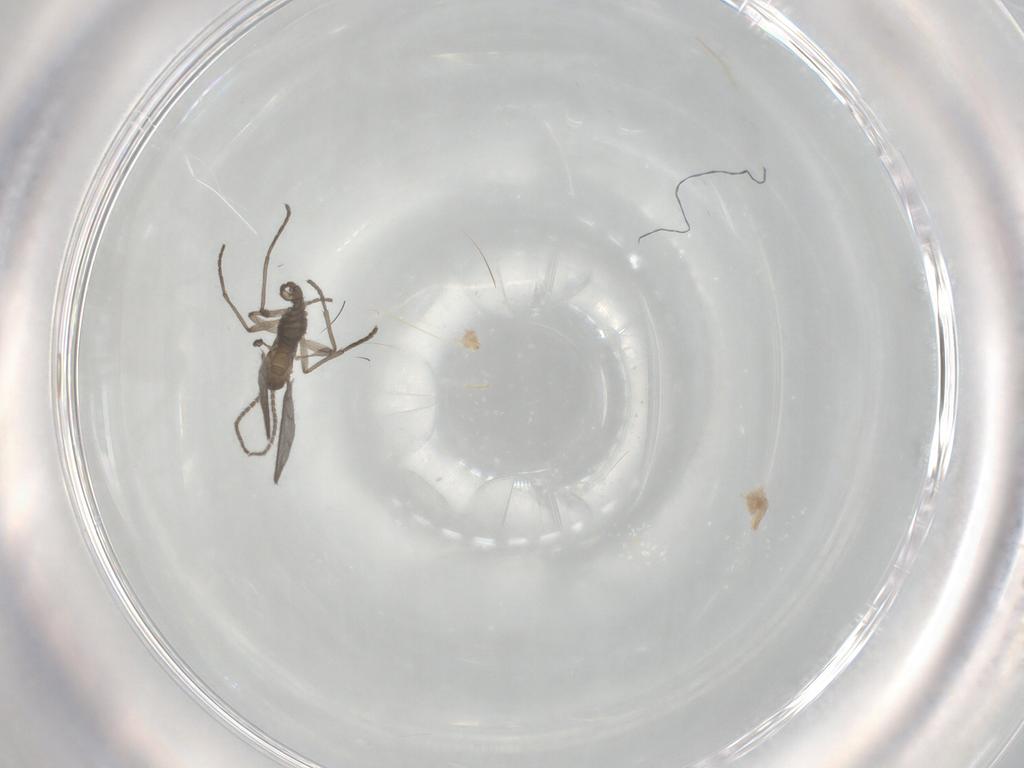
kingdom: Animalia
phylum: Arthropoda
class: Insecta
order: Diptera
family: Sciaridae
